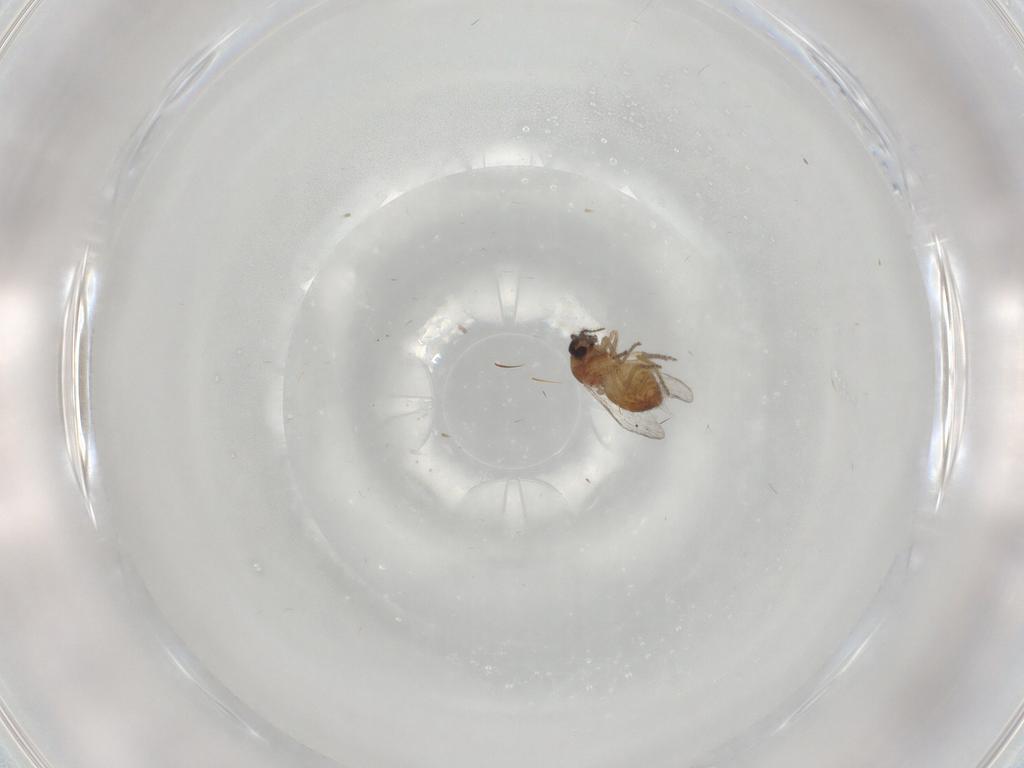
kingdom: Animalia
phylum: Arthropoda
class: Insecta
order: Diptera
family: Ceratopogonidae
